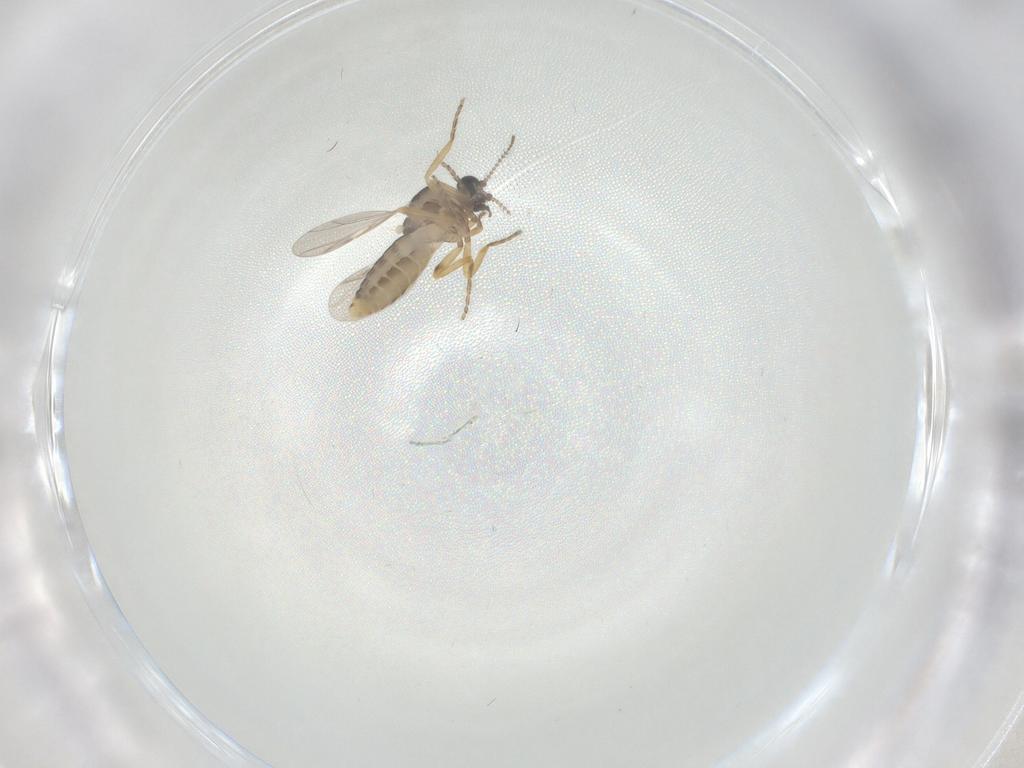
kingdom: Animalia
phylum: Arthropoda
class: Insecta
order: Diptera
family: Ceratopogonidae
